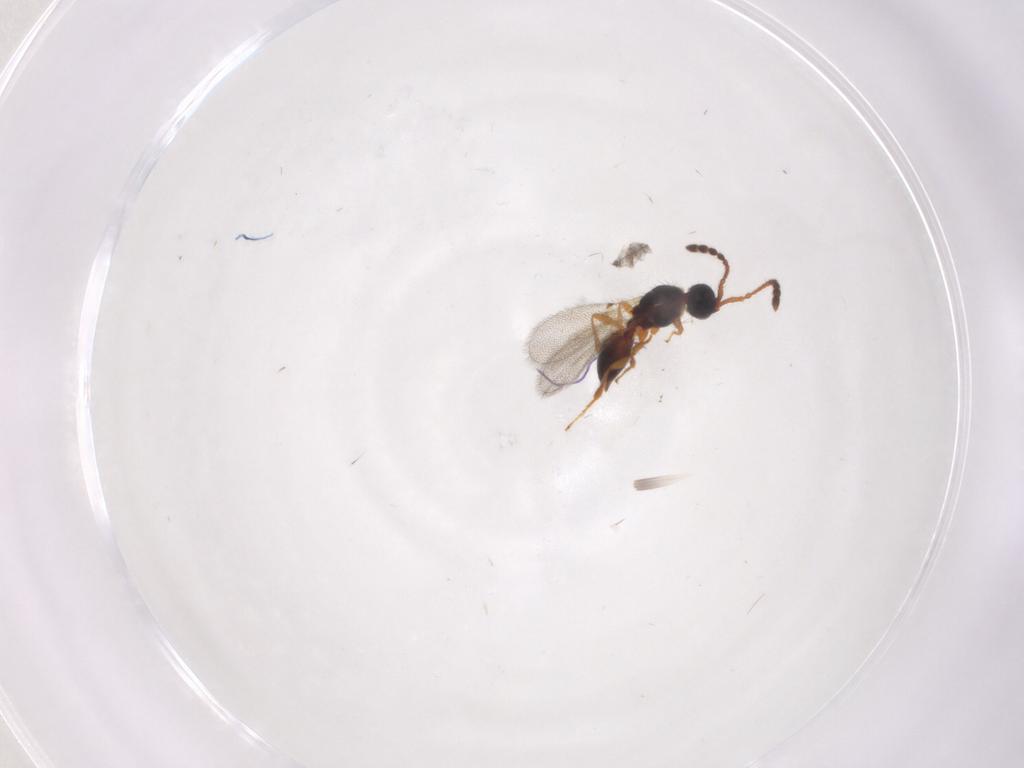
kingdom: Animalia
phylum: Arthropoda
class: Insecta
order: Hymenoptera
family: Diapriidae
